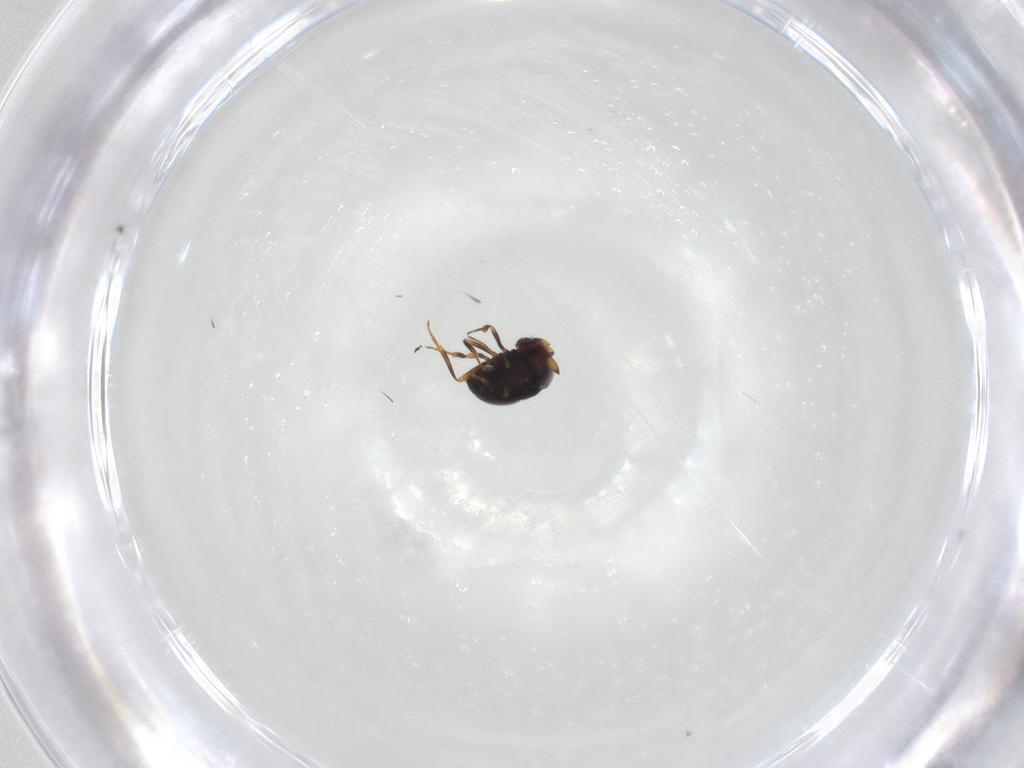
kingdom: Animalia
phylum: Arthropoda
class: Insecta
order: Hymenoptera
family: Scelionidae
